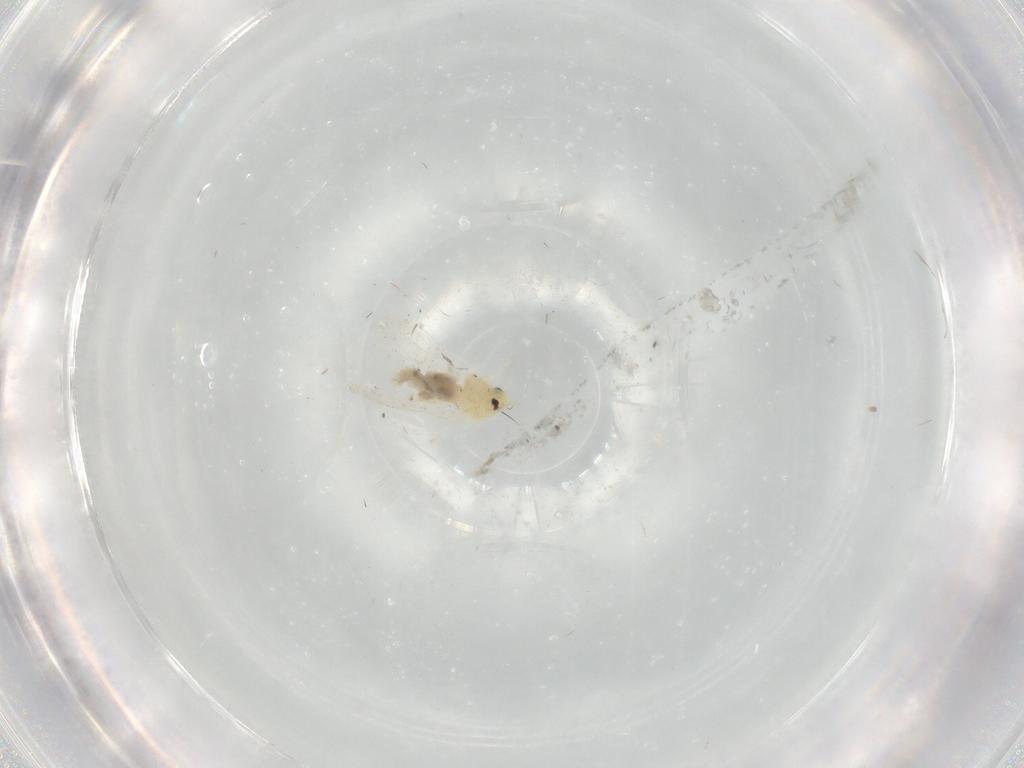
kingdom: Animalia
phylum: Arthropoda
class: Insecta
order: Hemiptera
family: Aleyrodidae
